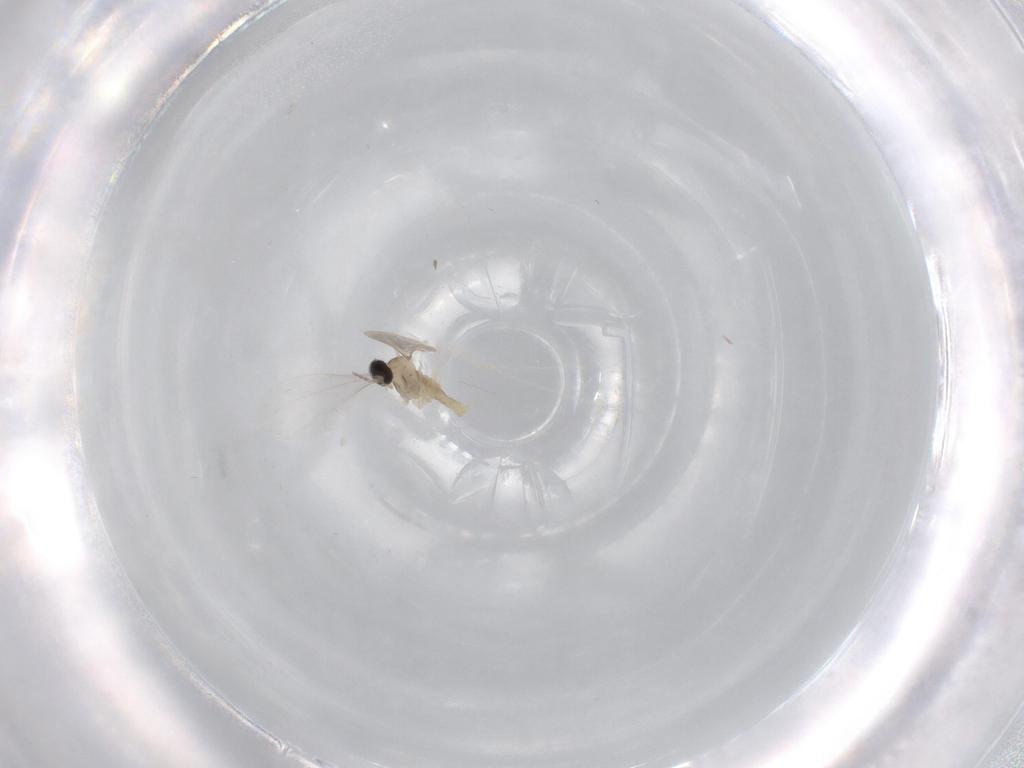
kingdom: Animalia
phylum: Arthropoda
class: Insecta
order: Diptera
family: Cecidomyiidae
